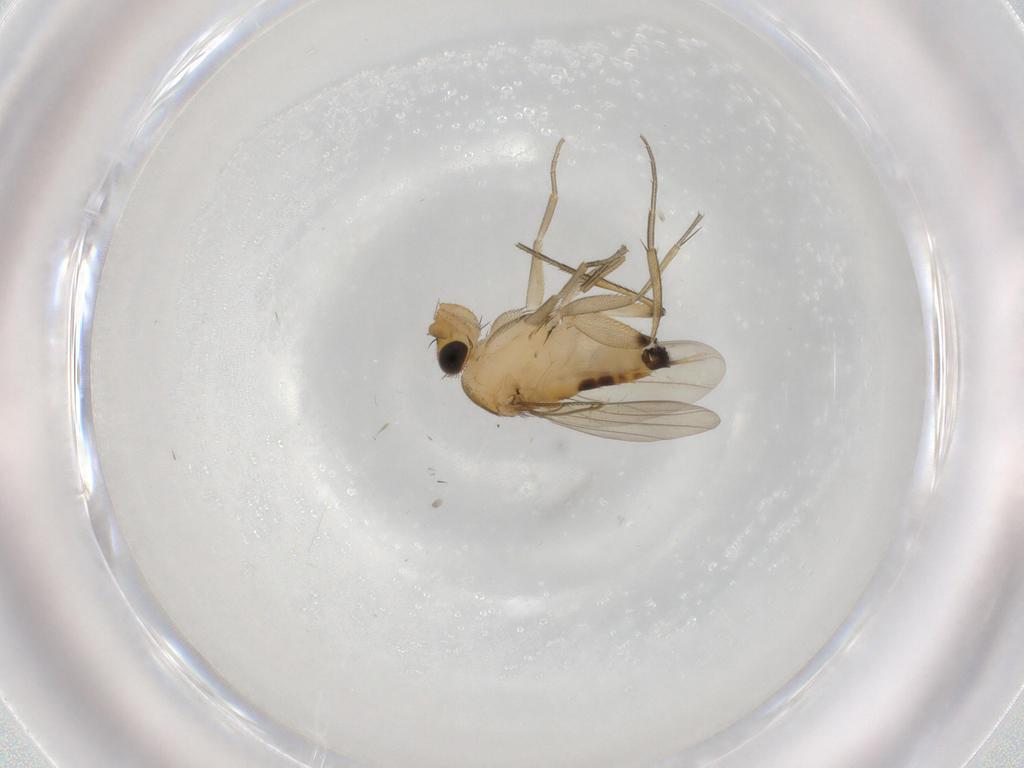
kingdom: Animalia
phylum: Arthropoda
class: Insecta
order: Diptera
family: Phoridae
